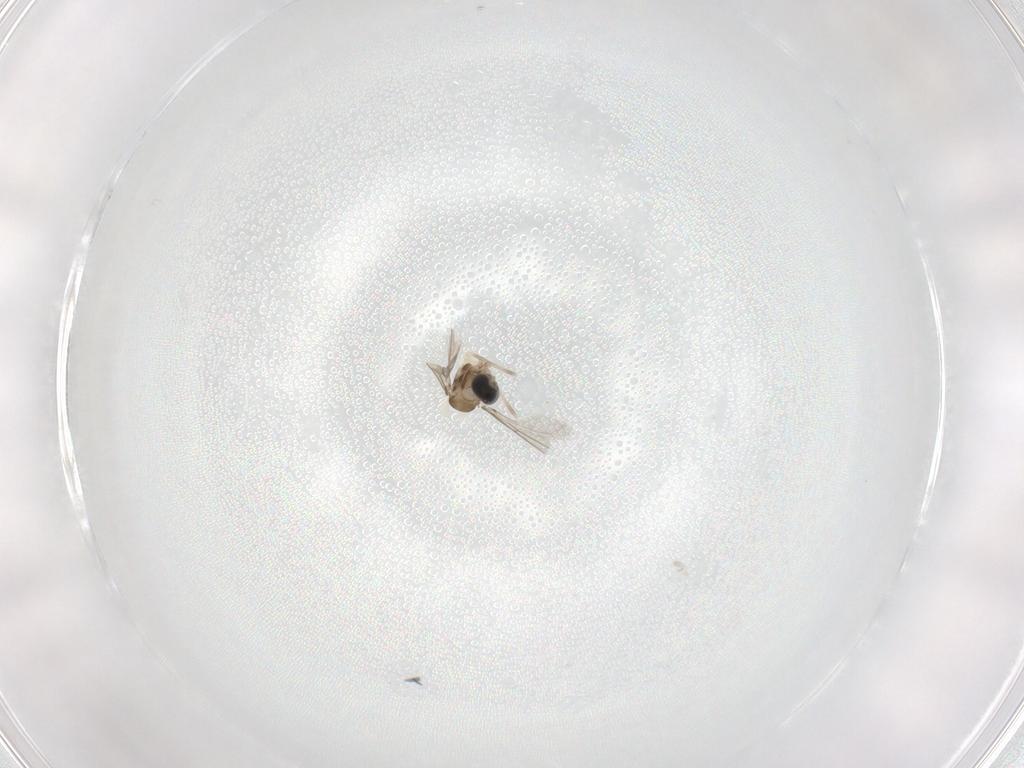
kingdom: Animalia
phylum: Arthropoda
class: Insecta
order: Diptera
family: Cecidomyiidae
